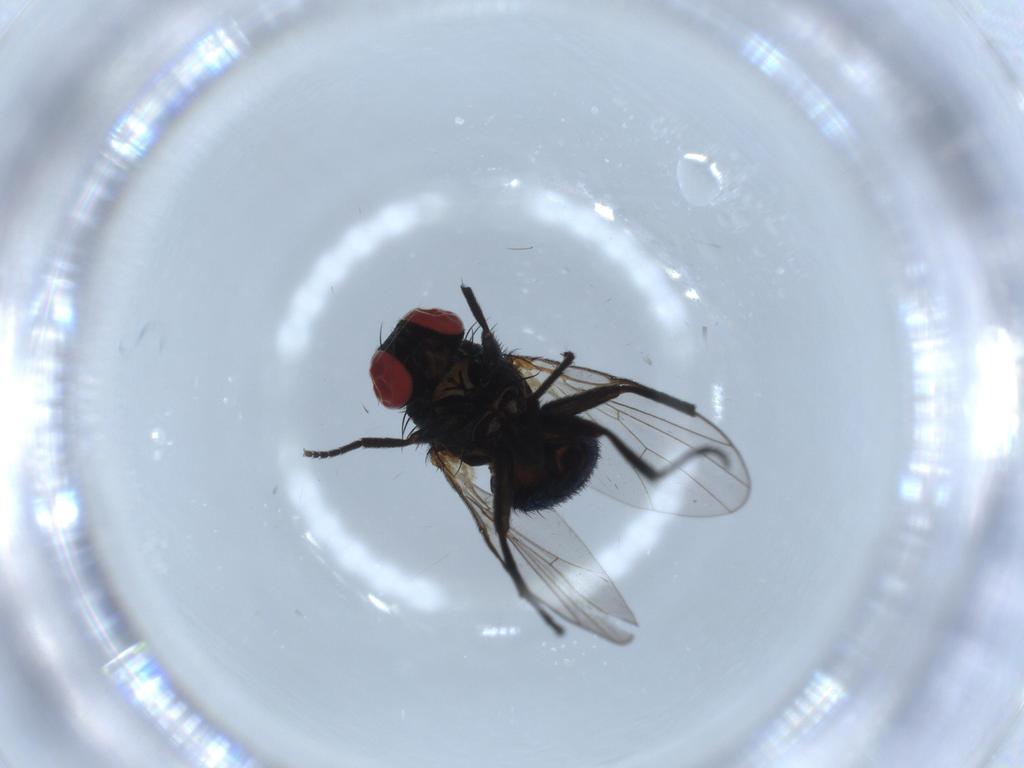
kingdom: Animalia
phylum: Arthropoda
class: Insecta
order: Diptera
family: Agromyzidae
